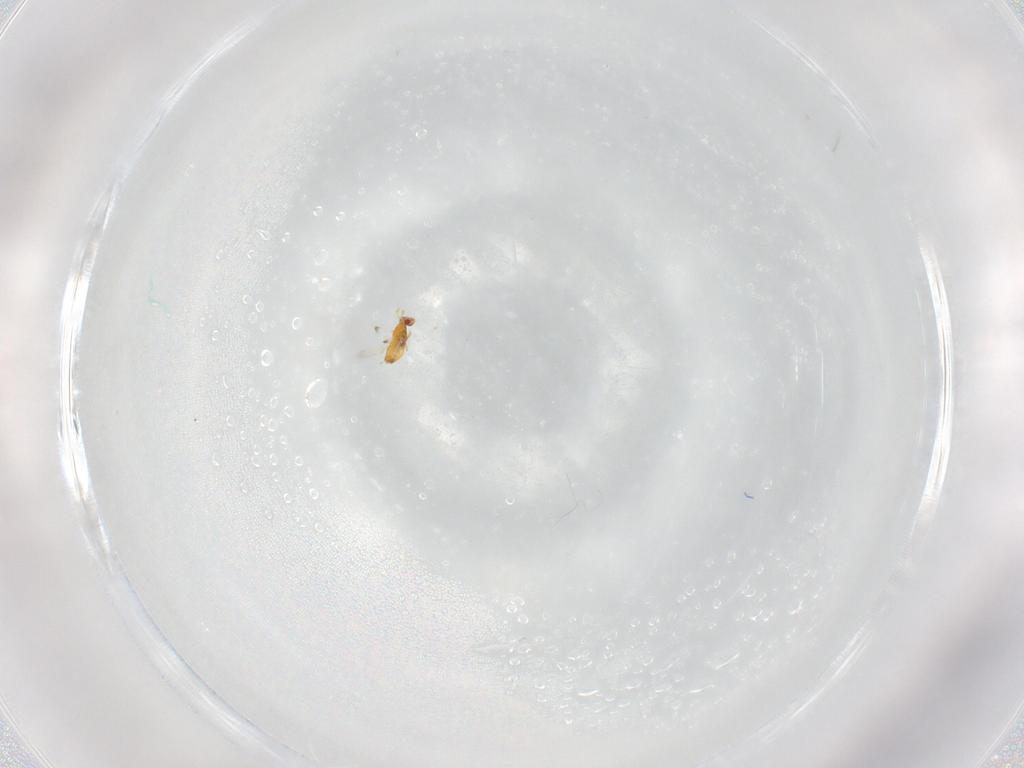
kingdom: Animalia
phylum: Arthropoda
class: Insecta
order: Hymenoptera
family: Trichogrammatidae
